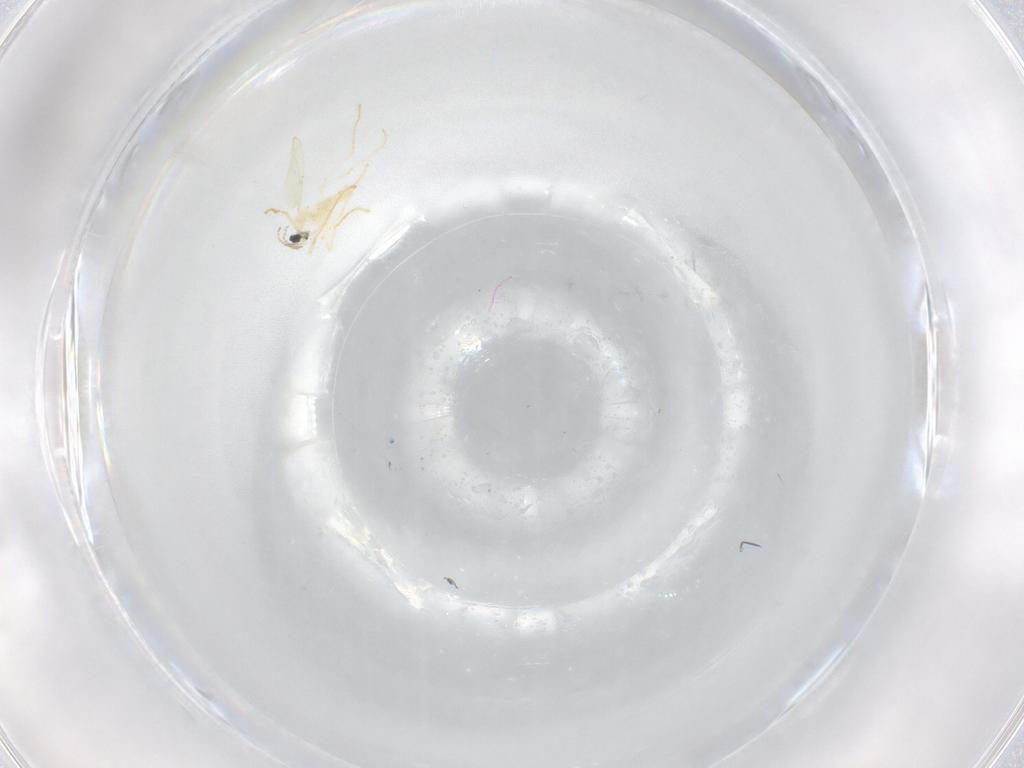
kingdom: Animalia
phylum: Arthropoda
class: Insecta
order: Diptera
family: Cecidomyiidae
